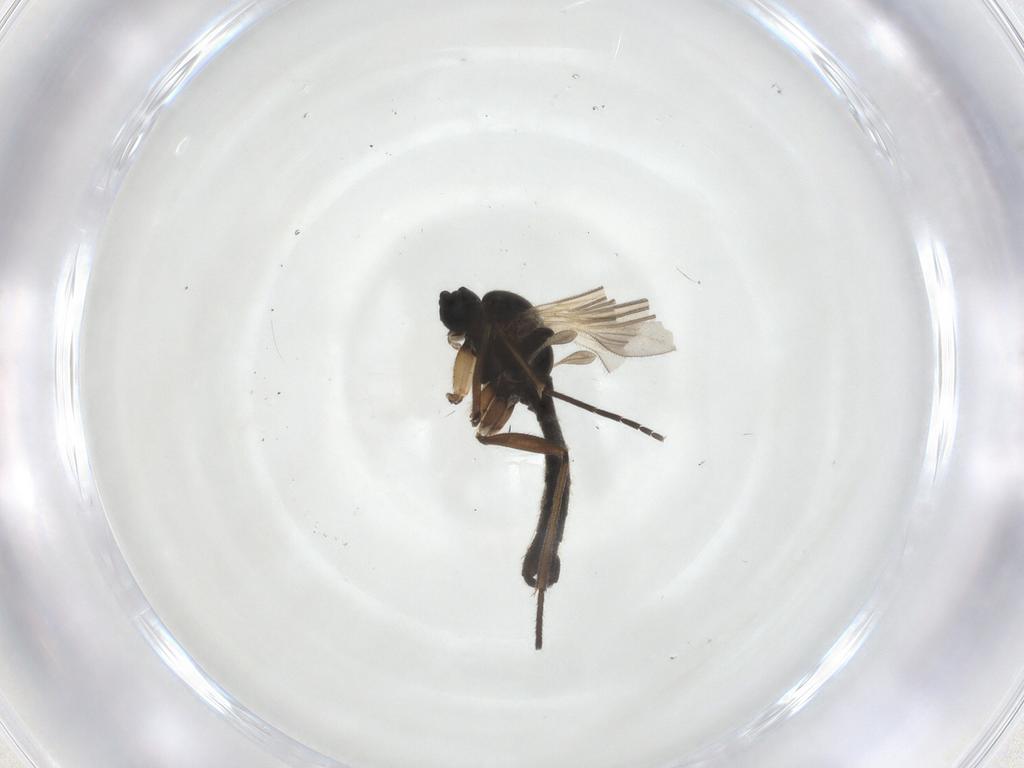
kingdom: Animalia
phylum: Arthropoda
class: Insecta
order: Diptera
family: Sciaridae
